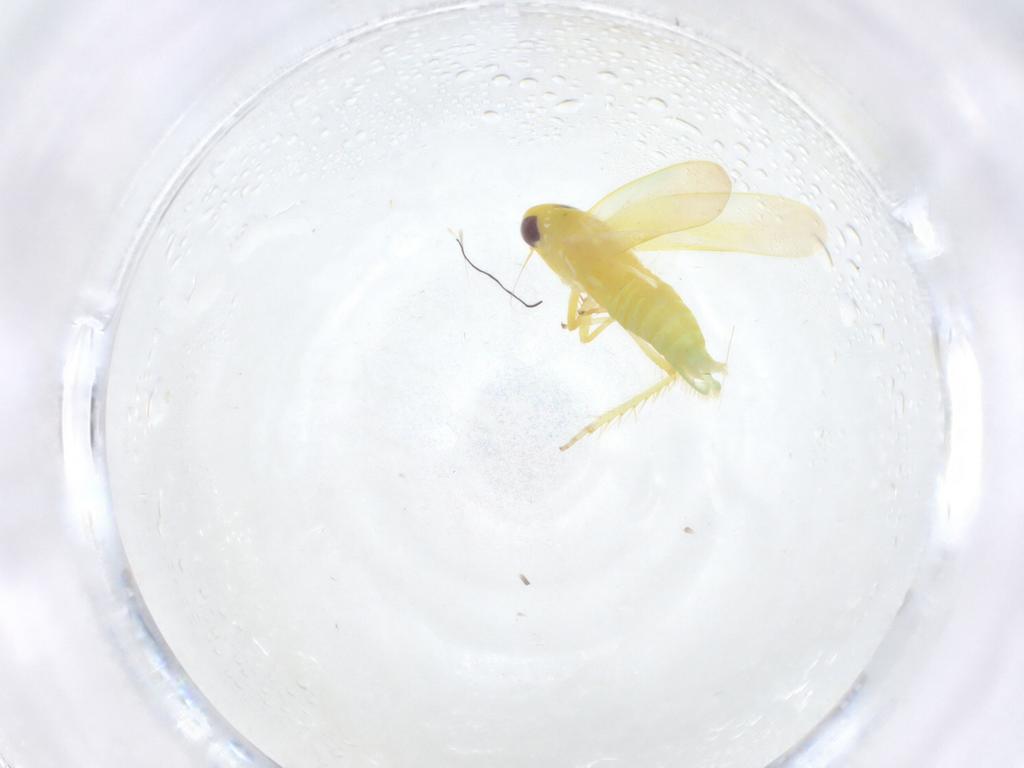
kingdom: Animalia
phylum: Arthropoda
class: Insecta
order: Hemiptera
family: Cicadellidae
